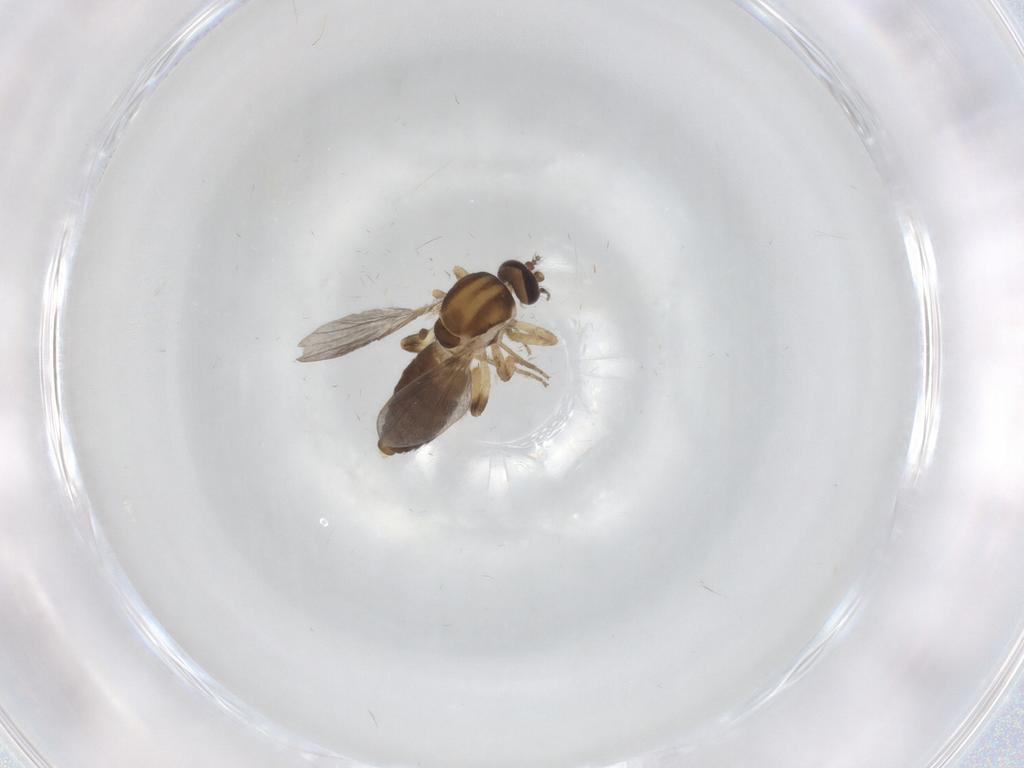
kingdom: Animalia
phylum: Arthropoda
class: Insecta
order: Diptera
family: Ceratopogonidae
